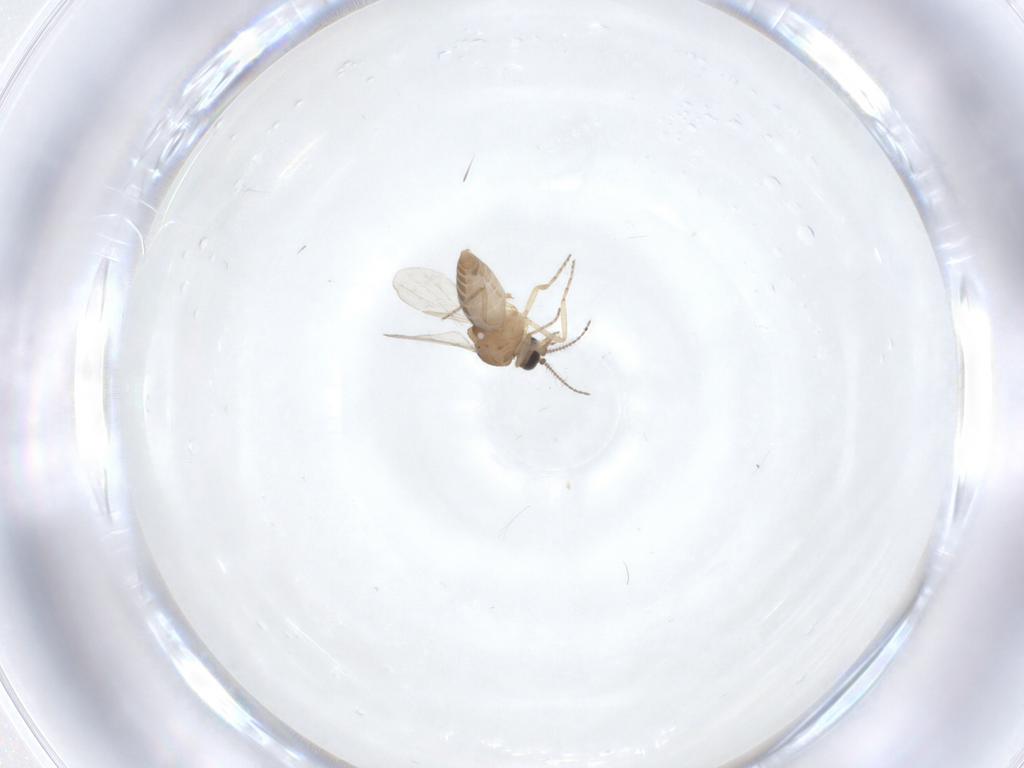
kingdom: Animalia
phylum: Arthropoda
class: Insecta
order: Diptera
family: Ceratopogonidae
